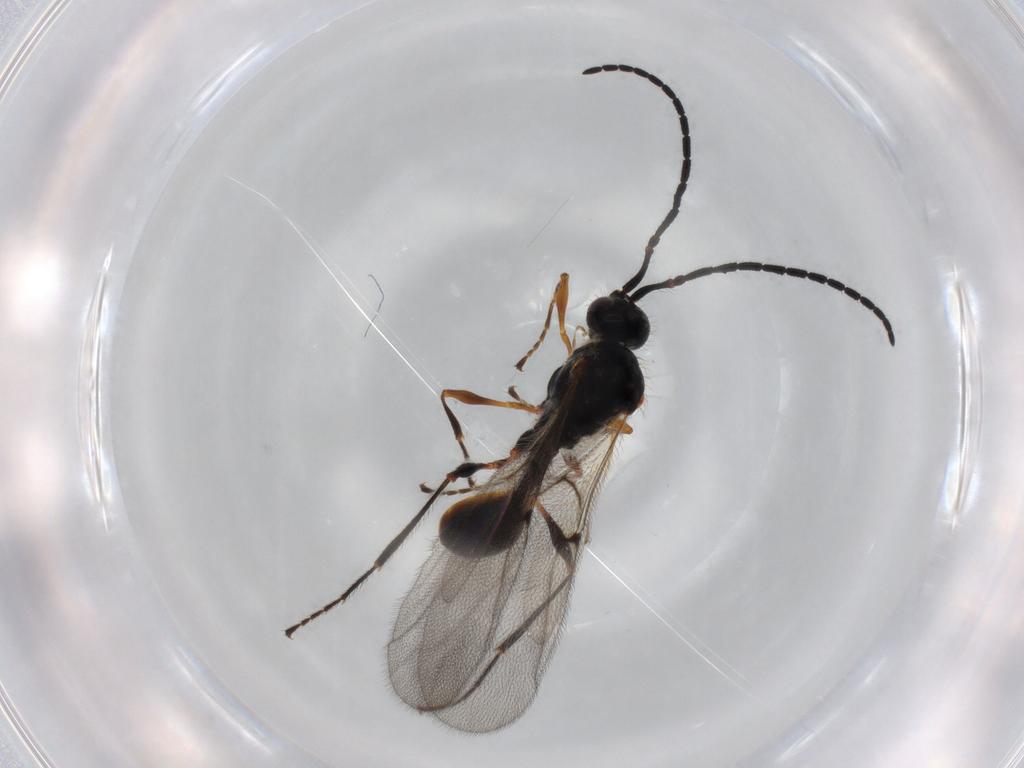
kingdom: Animalia
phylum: Arthropoda
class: Insecta
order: Hymenoptera
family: Diapriidae
